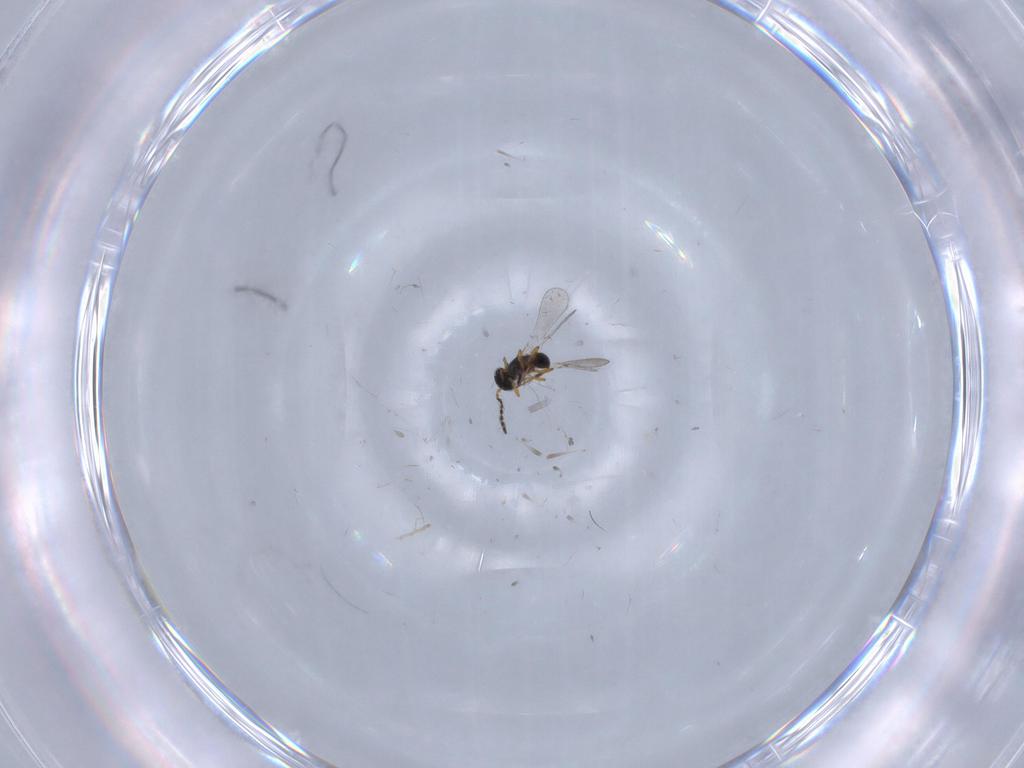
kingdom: Animalia
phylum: Arthropoda
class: Insecta
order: Hymenoptera
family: Platygastridae
